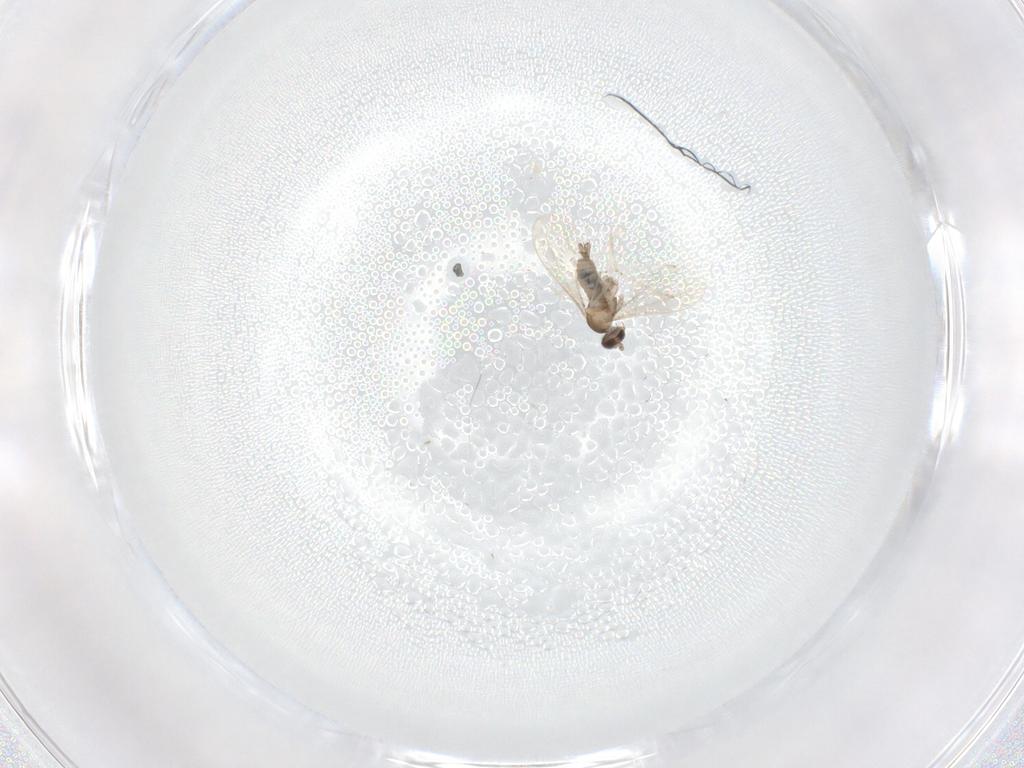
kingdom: Animalia
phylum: Arthropoda
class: Insecta
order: Diptera
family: Cecidomyiidae
